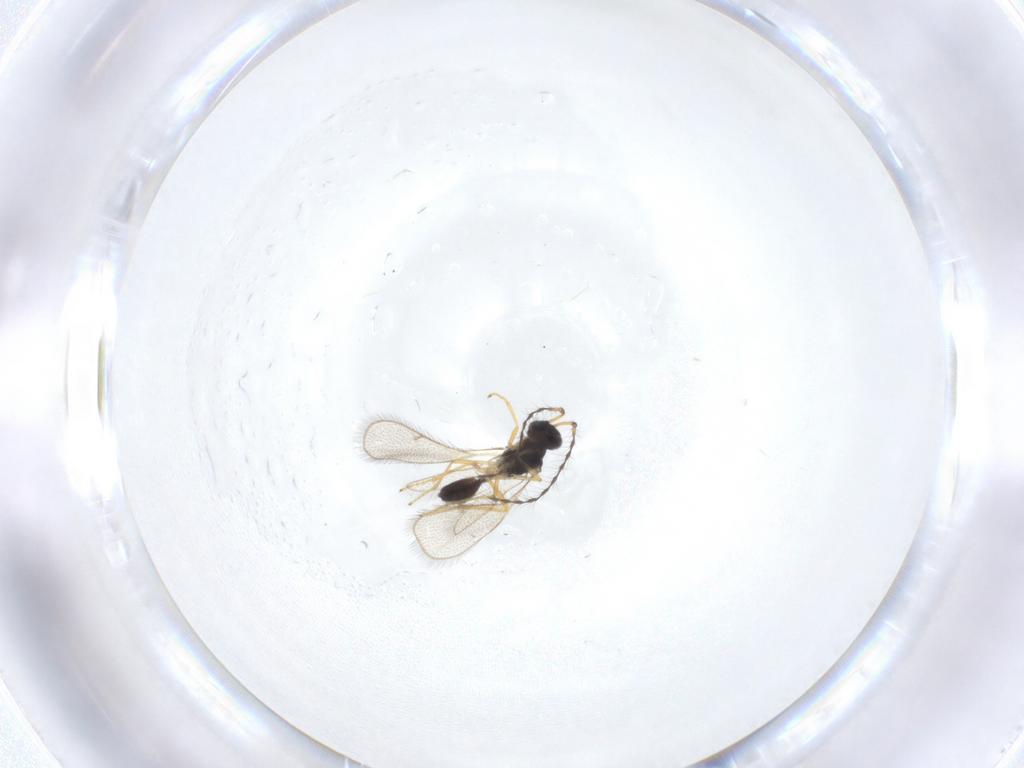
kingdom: Animalia
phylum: Arthropoda
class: Insecta
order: Hymenoptera
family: Diparidae
